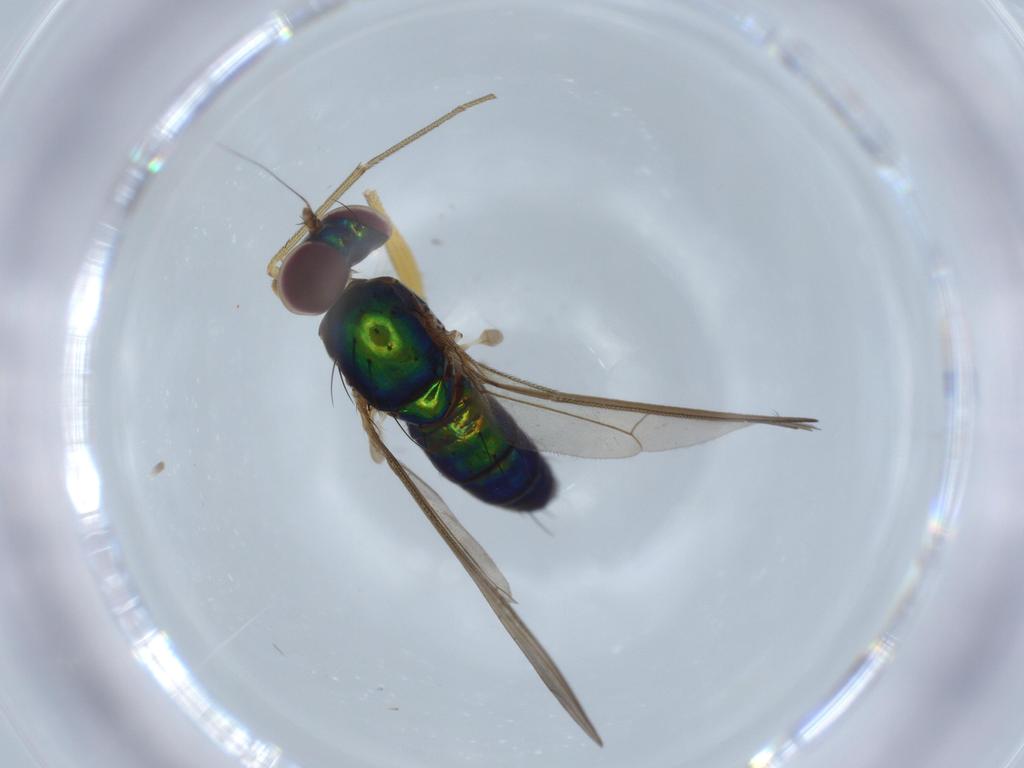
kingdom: Animalia
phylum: Arthropoda
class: Insecta
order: Diptera
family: Dolichopodidae
